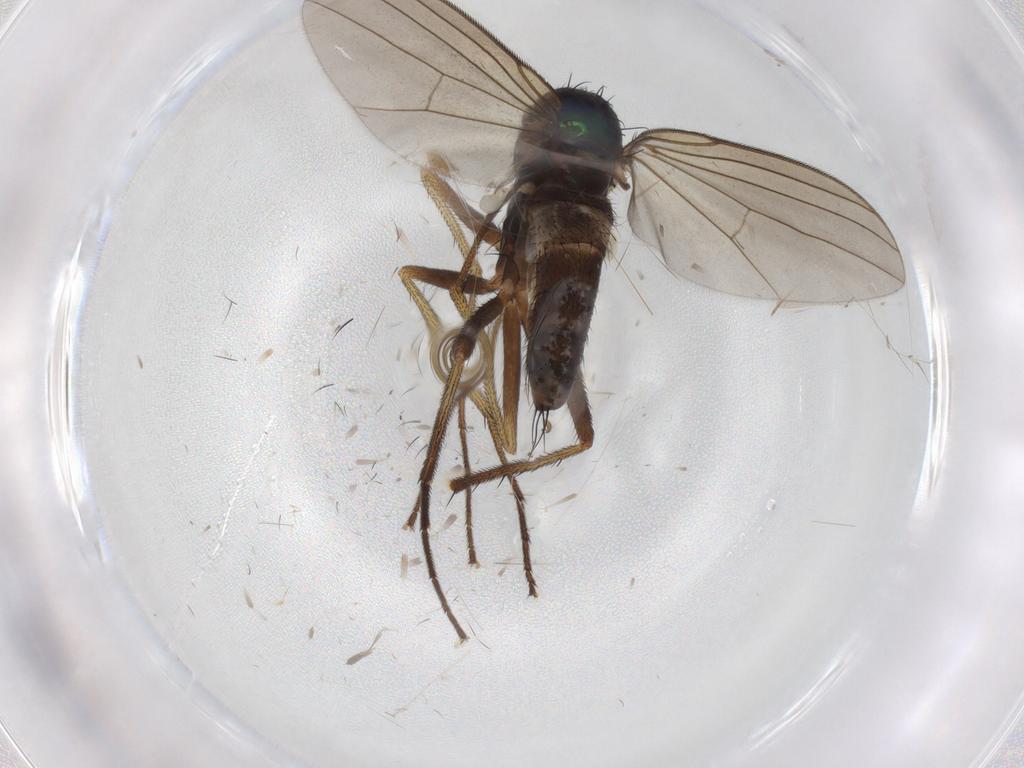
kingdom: Animalia
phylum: Arthropoda
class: Insecta
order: Diptera
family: Dolichopodidae
